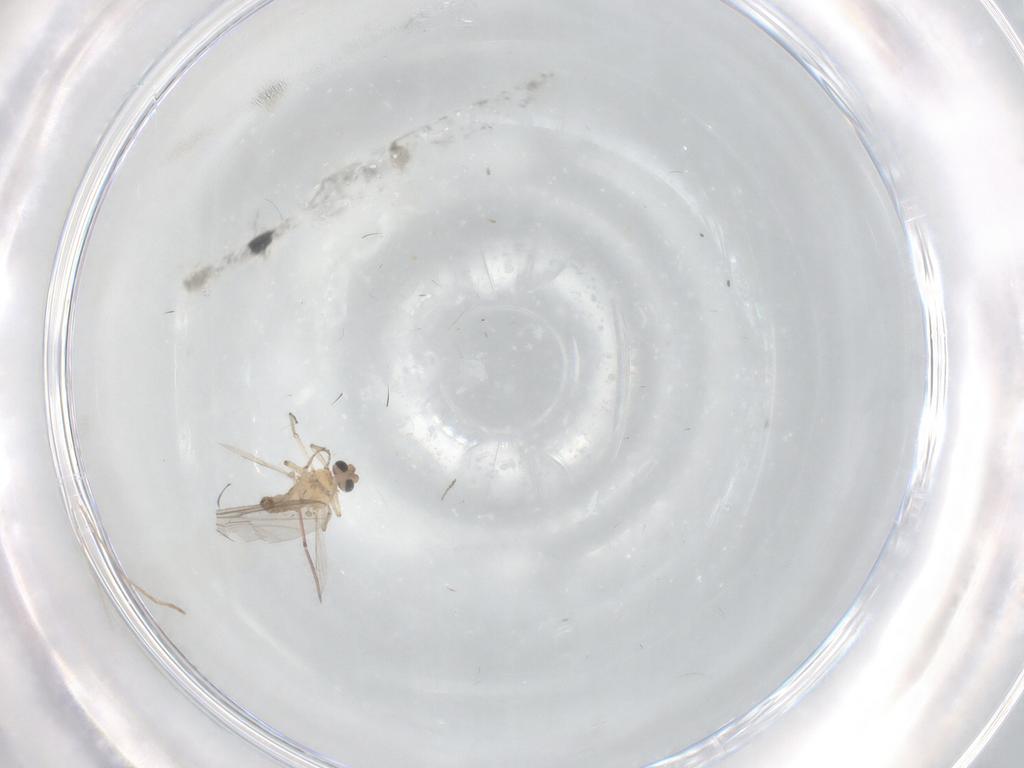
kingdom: Animalia
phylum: Arthropoda
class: Insecta
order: Diptera
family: Ceratopogonidae
